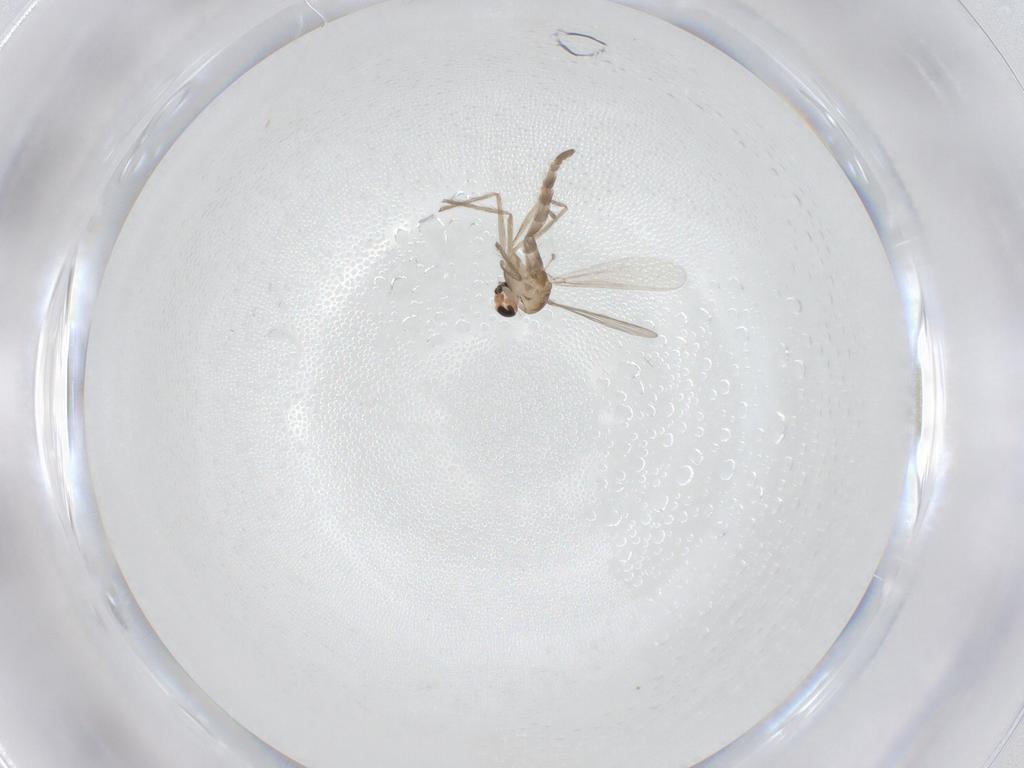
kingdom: Animalia
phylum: Arthropoda
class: Insecta
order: Diptera
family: Chironomidae
